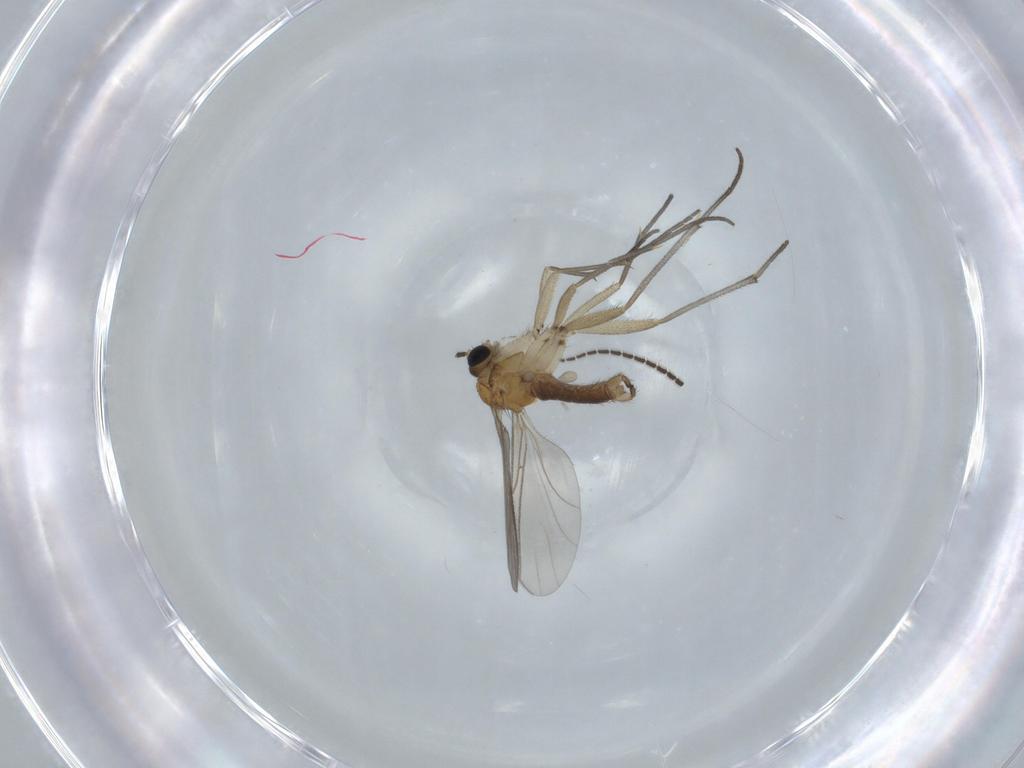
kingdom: Animalia
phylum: Arthropoda
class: Insecta
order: Diptera
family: Sciaridae
